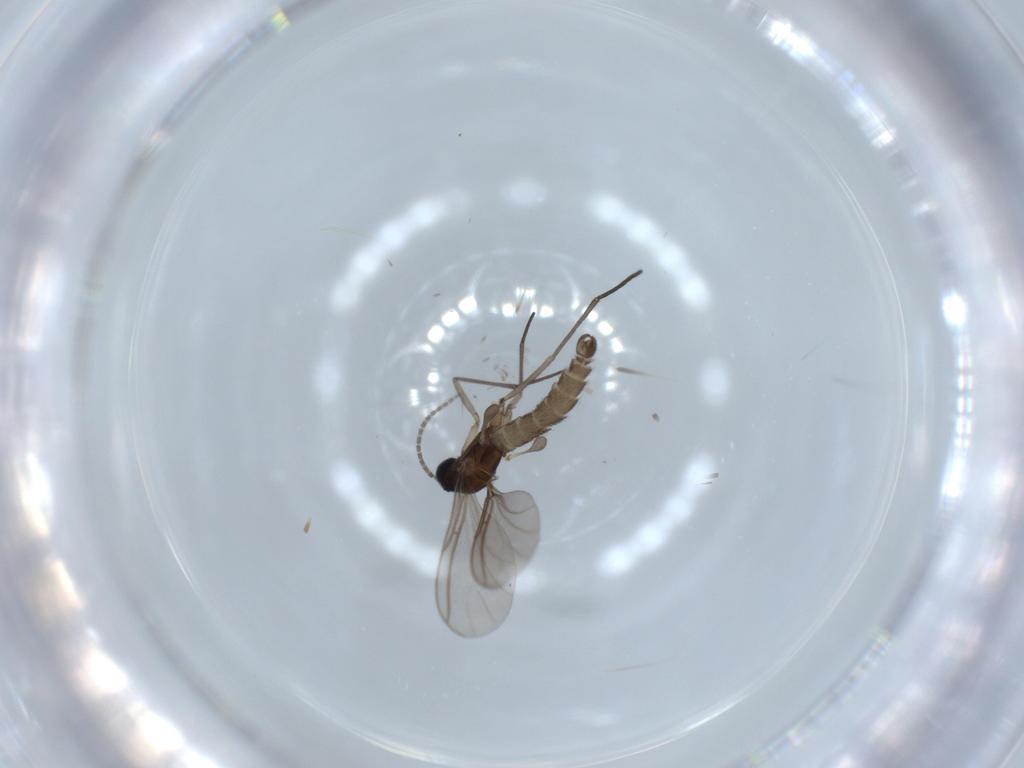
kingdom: Animalia
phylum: Arthropoda
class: Insecta
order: Diptera
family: Sciaridae
